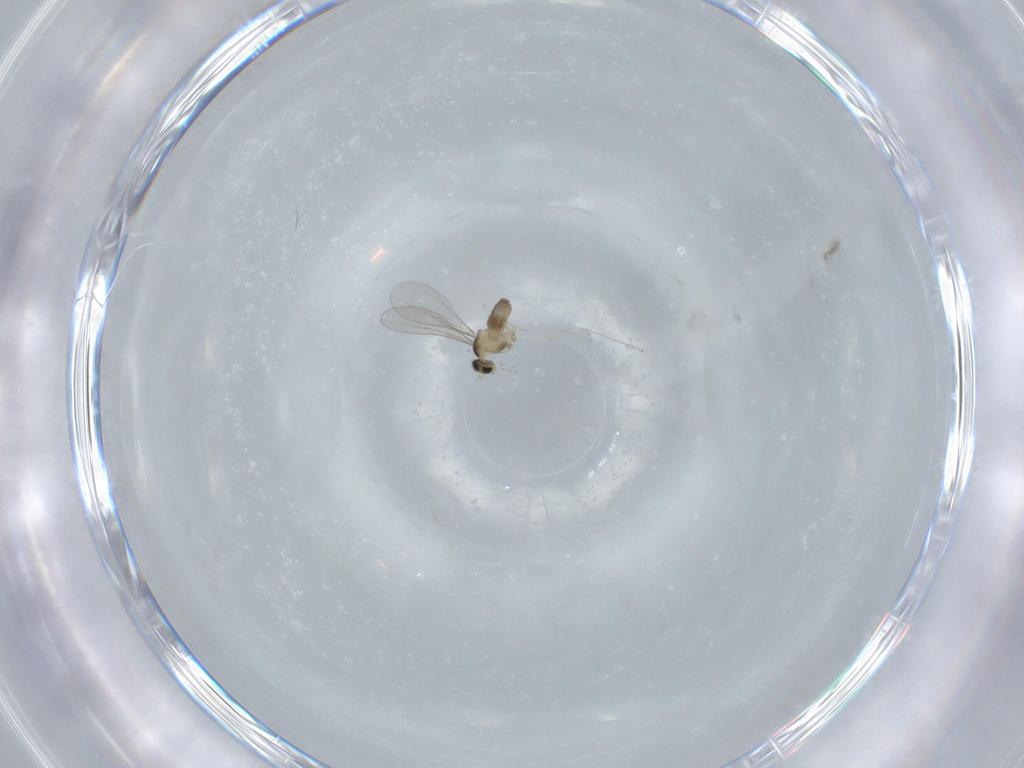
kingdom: Animalia
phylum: Arthropoda
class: Insecta
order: Diptera
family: Cecidomyiidae
